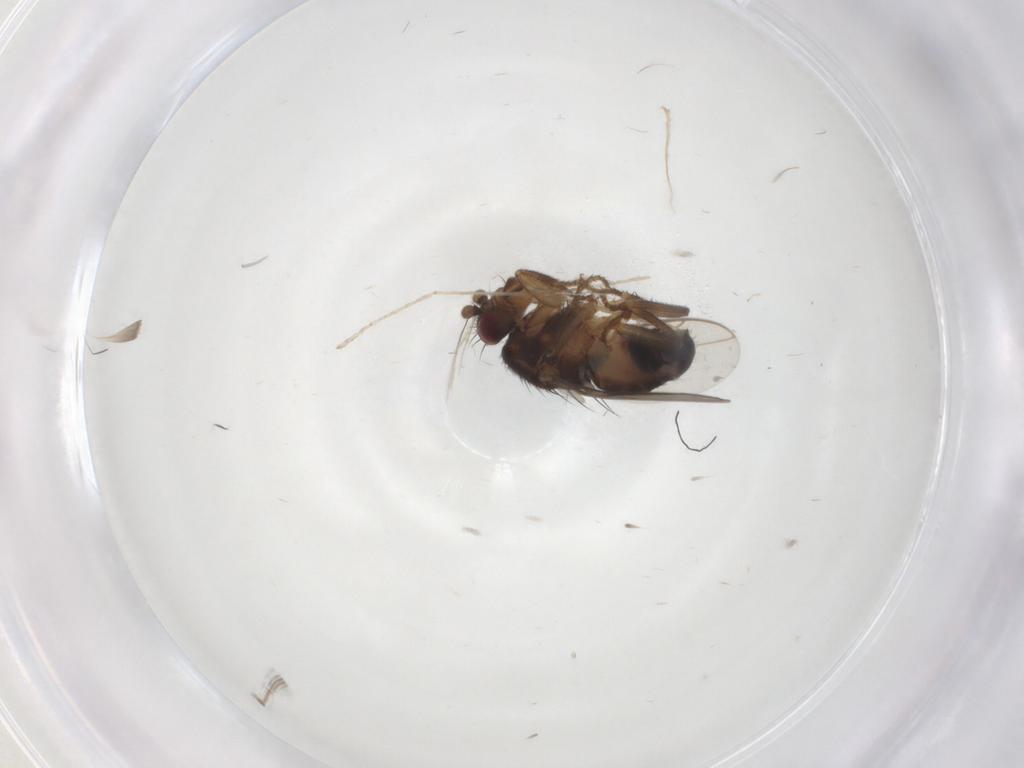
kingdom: Animalia
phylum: Arthropoda
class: Insecta
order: Diptera
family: Sphaeroceridae
